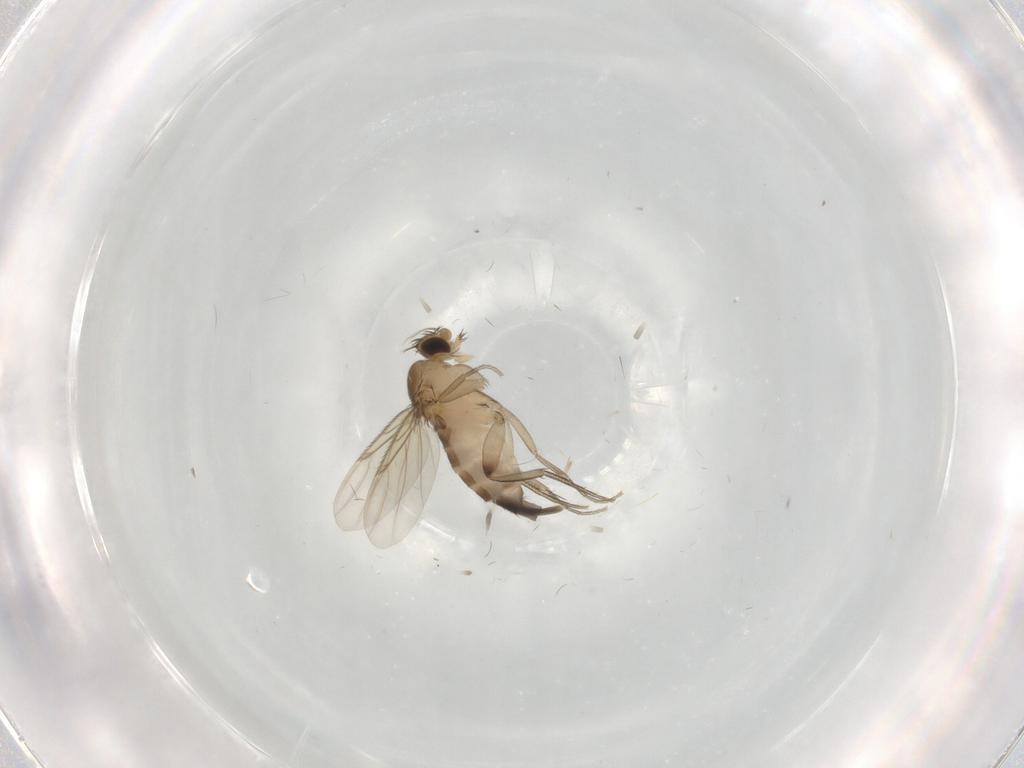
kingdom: Animalia
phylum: Arthropoda
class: Insecta
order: Diptera
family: Phoridae
